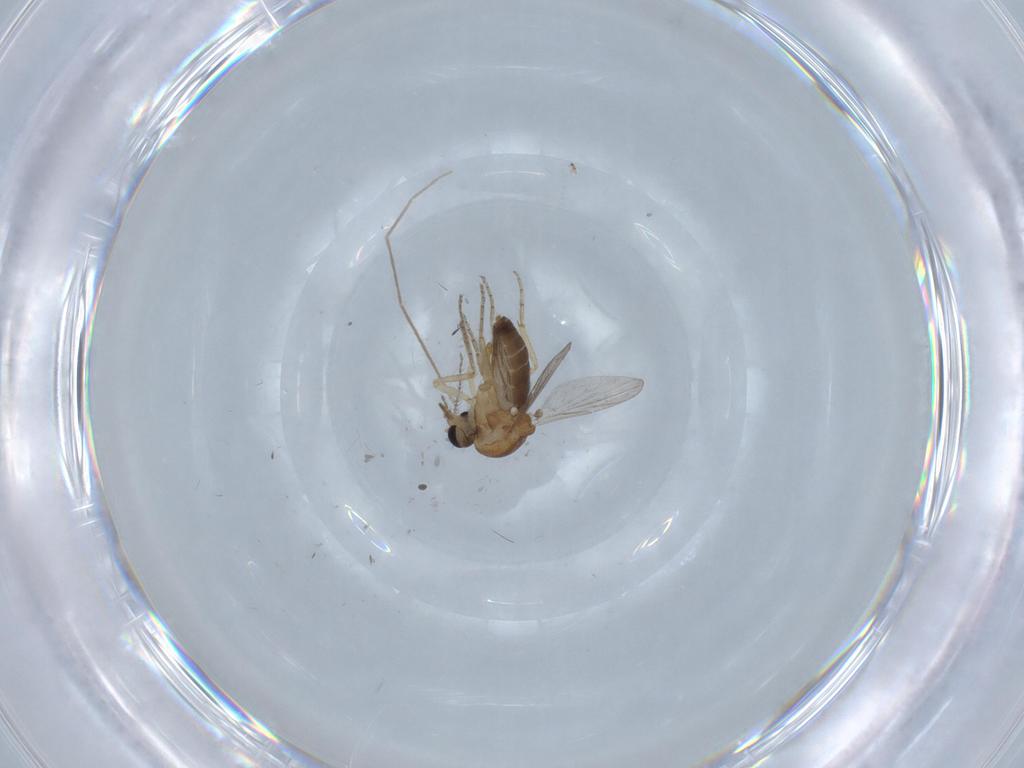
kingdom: Animalia
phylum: Arthropoda
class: Insecta
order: Diptera
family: Ceratopogonidae
